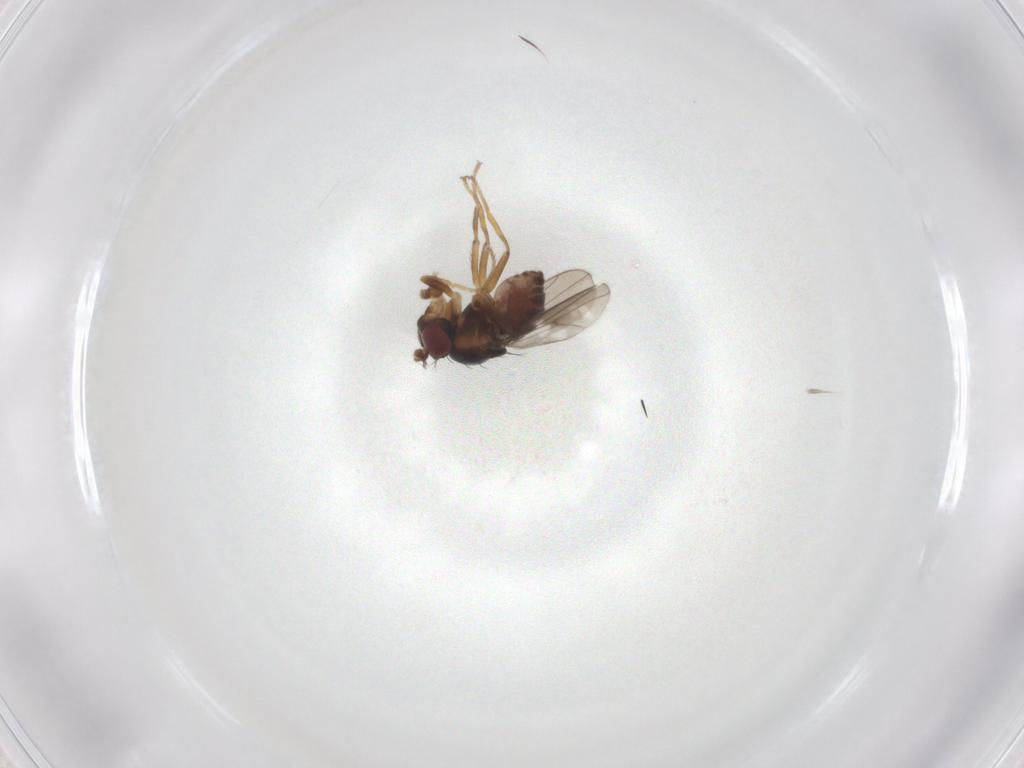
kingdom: Animalia
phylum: Arthropoda
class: Insecta
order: Diptera
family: Ephydridae
